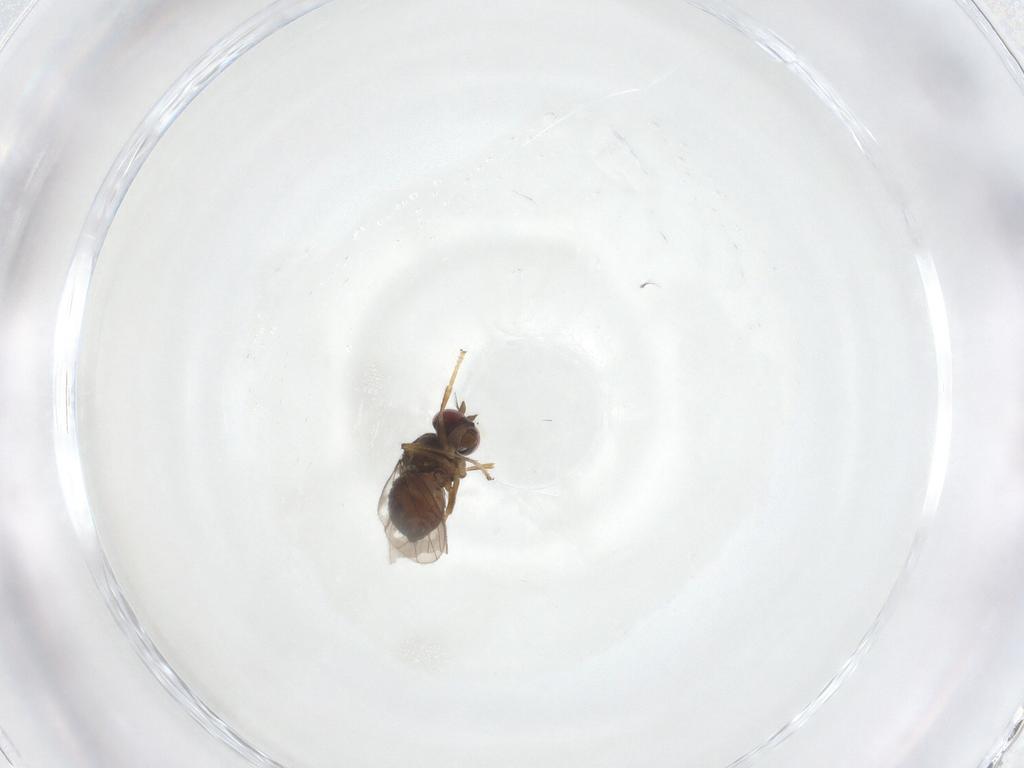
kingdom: Animalia
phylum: Arthropoda
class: Insecta
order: Diptera
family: Ephydridae
